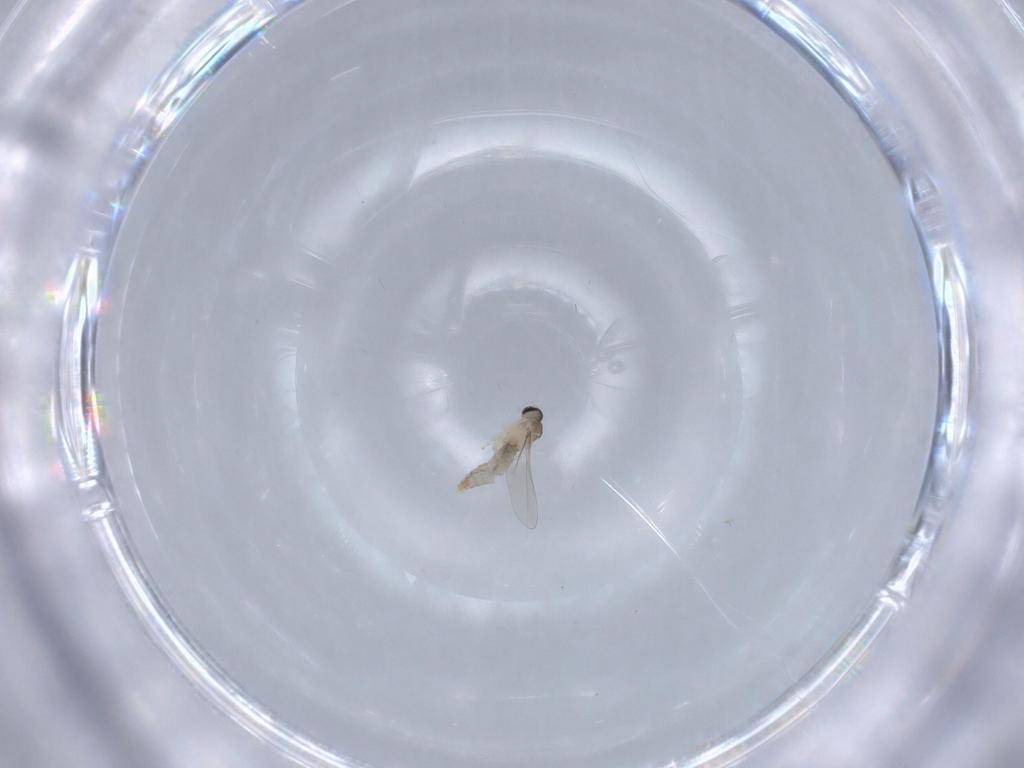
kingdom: Animalia
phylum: Arthropoda
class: Insecta
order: Diptera
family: Cecidomyiidae
